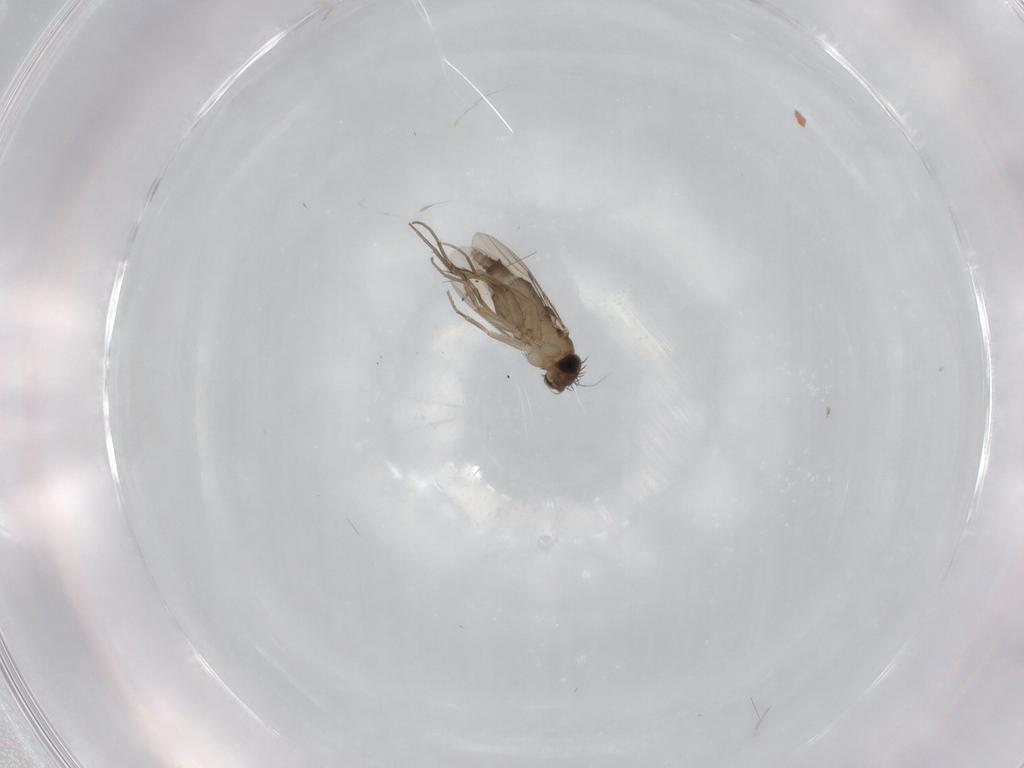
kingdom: Animalia
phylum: Arthropoda
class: Insecta
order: Diptera
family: Phoridae
